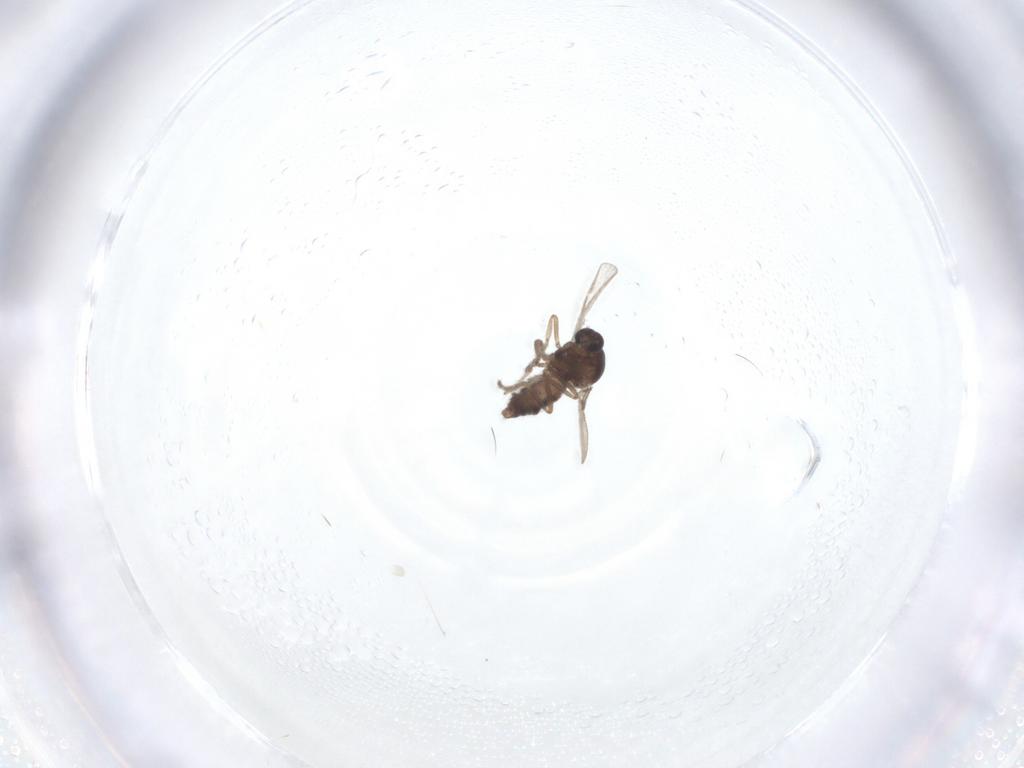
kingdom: Animalia
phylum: Arthropoda
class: Insecta
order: Diptera
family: Ceratopogonidae
